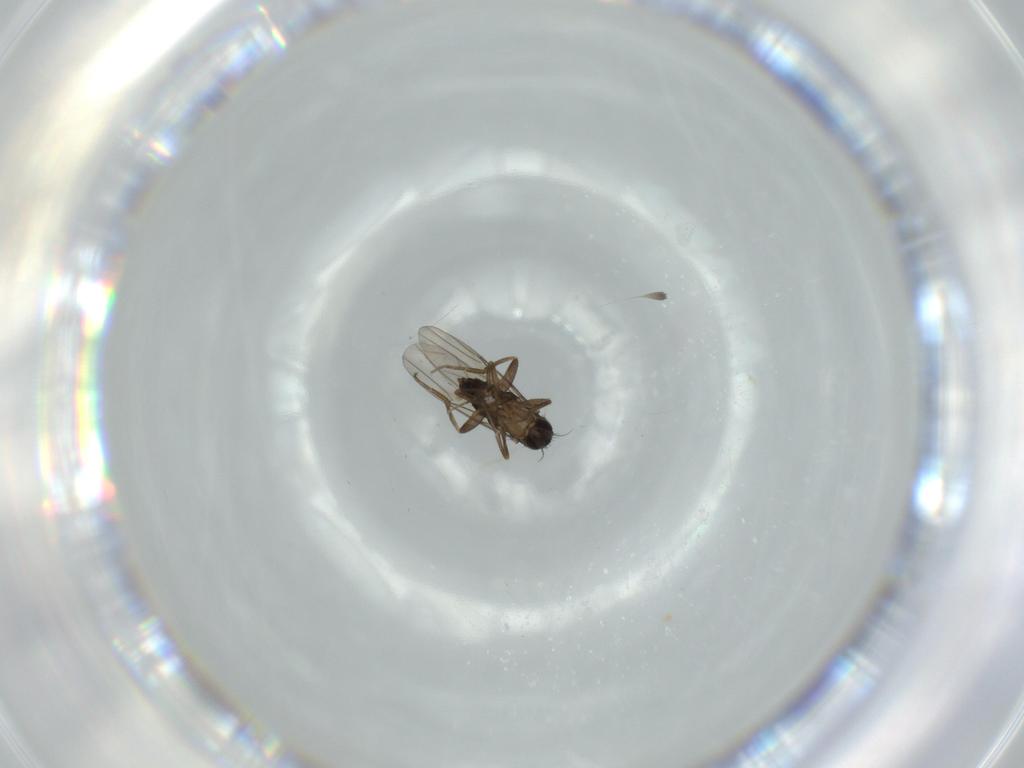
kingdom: Animalia
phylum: Arthropoda
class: Insecta
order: Diptera
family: Phoridae
